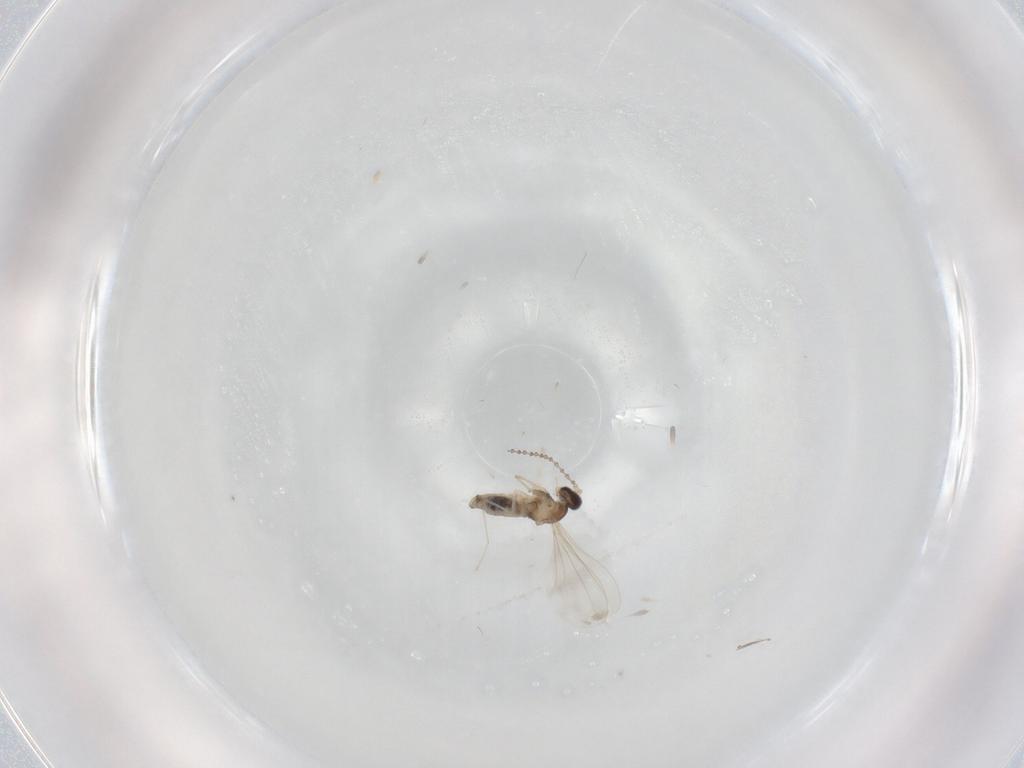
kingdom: Animalia
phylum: Arthropoda
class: Insecta
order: Diptera
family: Cecidomyiidae
